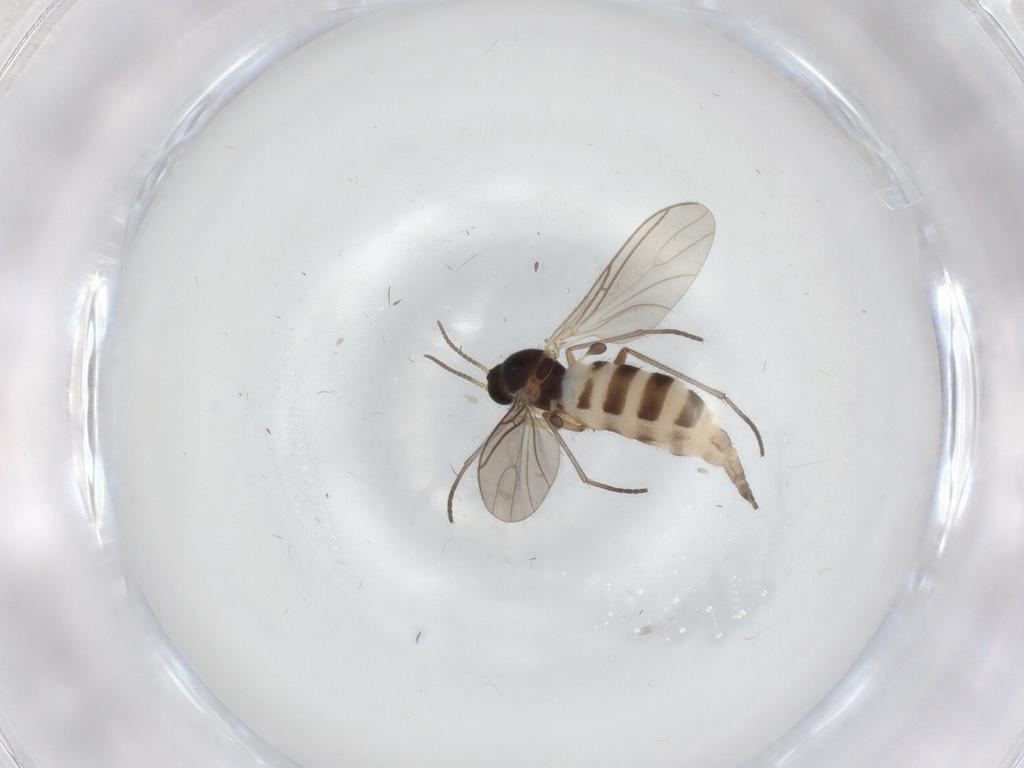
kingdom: Animalia
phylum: Arthropoda
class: Insecta
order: Diptera
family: Sciaridae
